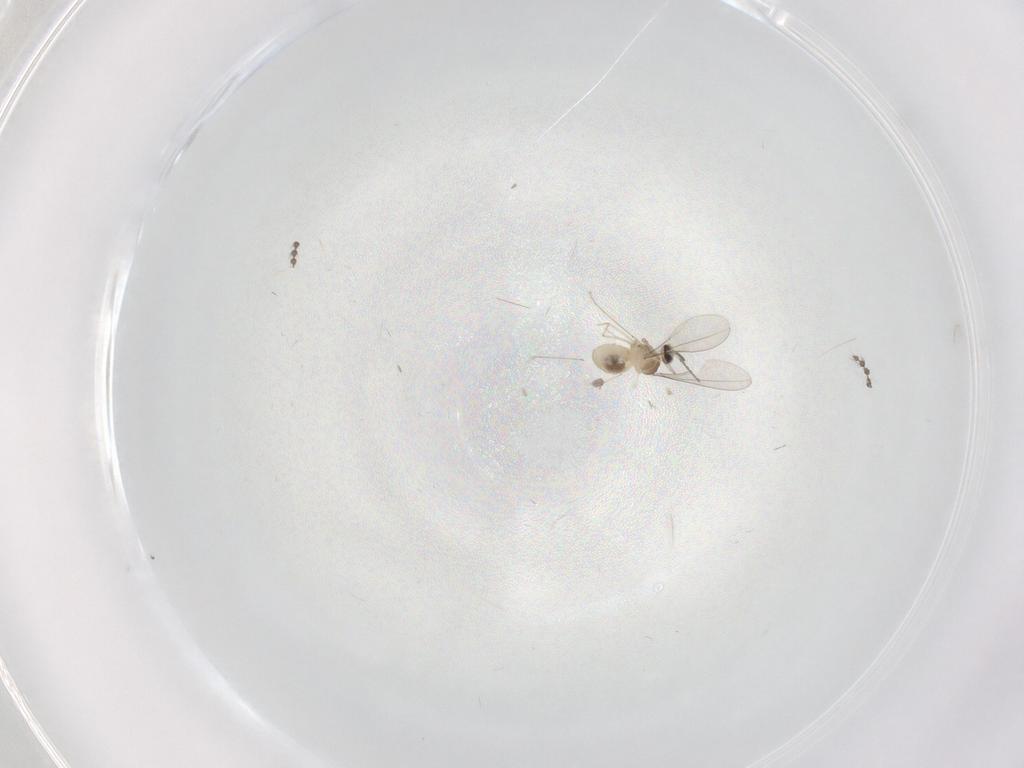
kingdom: Animalia
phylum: Arthropoda
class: Insecta
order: Diptera
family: Cecidomyiidae
